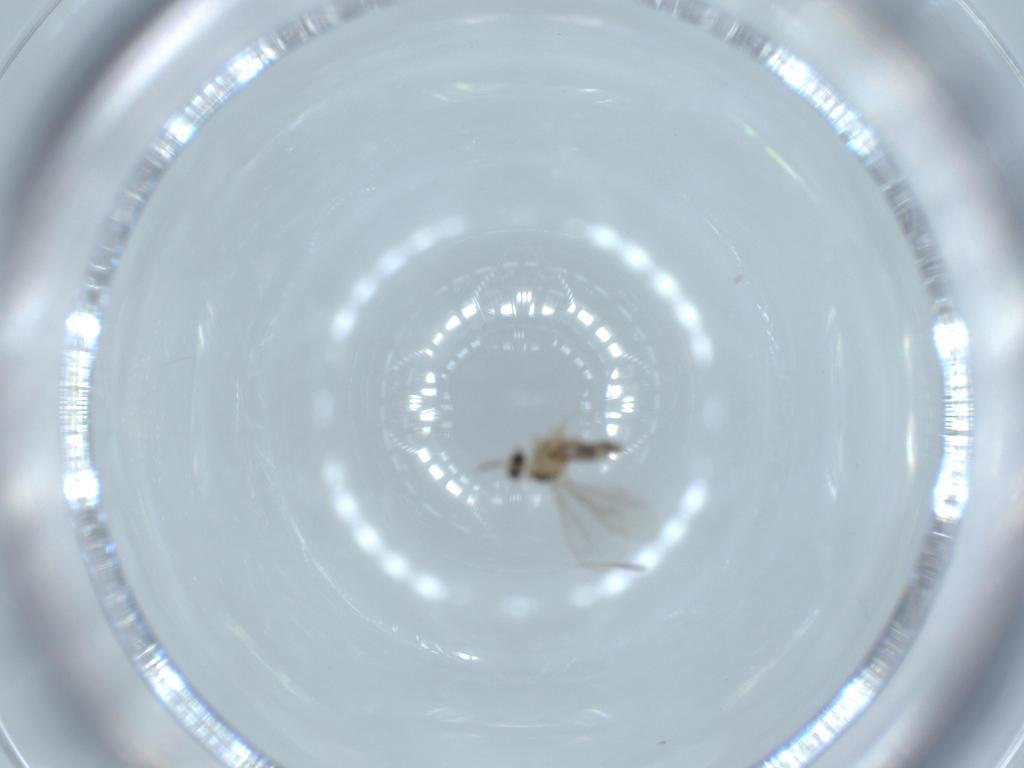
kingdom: Animalia
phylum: Arthropoda
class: Insecta
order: Diptera
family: Cecidomyiidae
